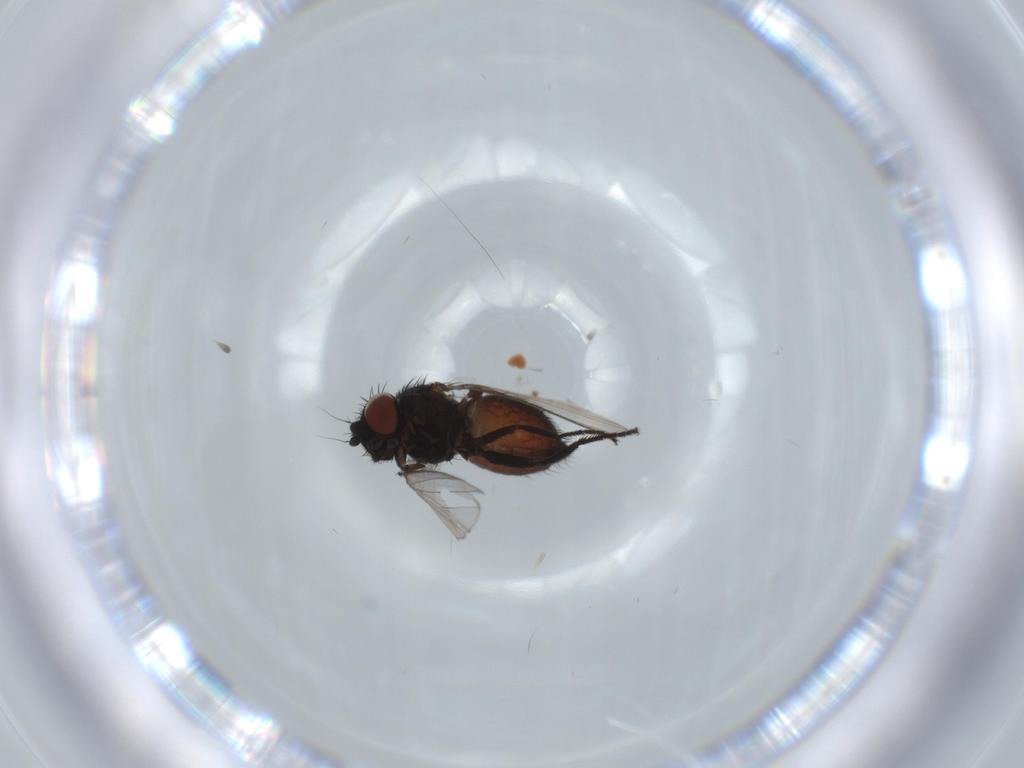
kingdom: Animalia
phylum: Arthropoda
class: Insecta
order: Diptera
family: Milichiidae
